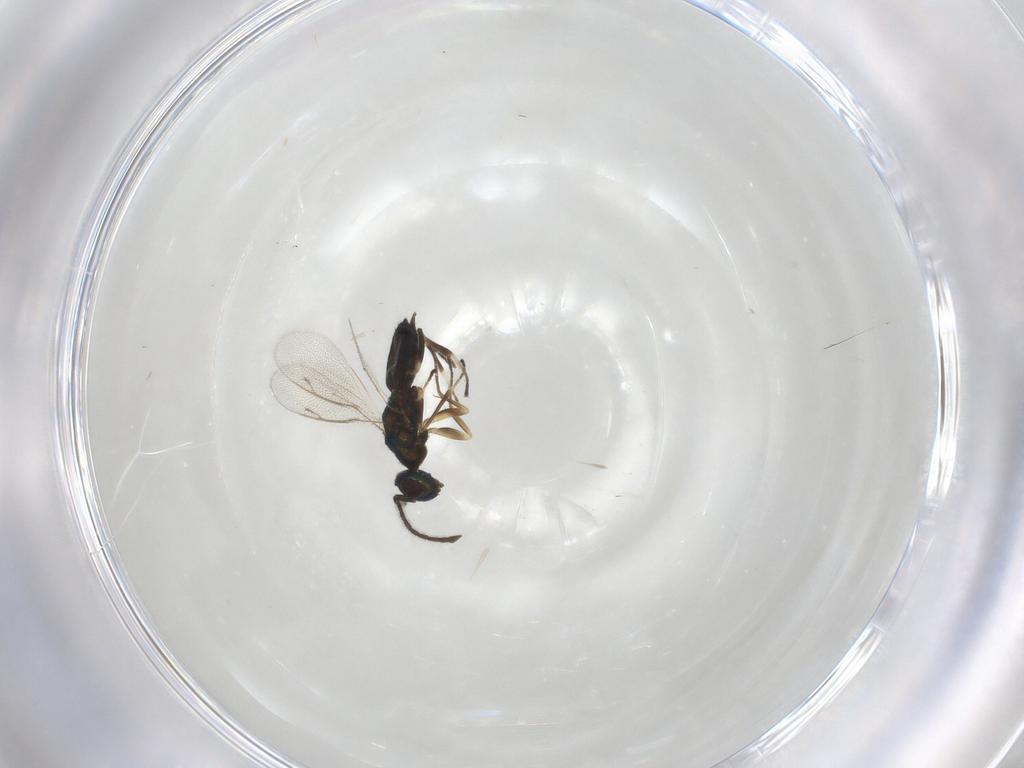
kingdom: Animalia
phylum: Arthropoda
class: Insecta
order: Hymenoptera
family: Eupelmidae
